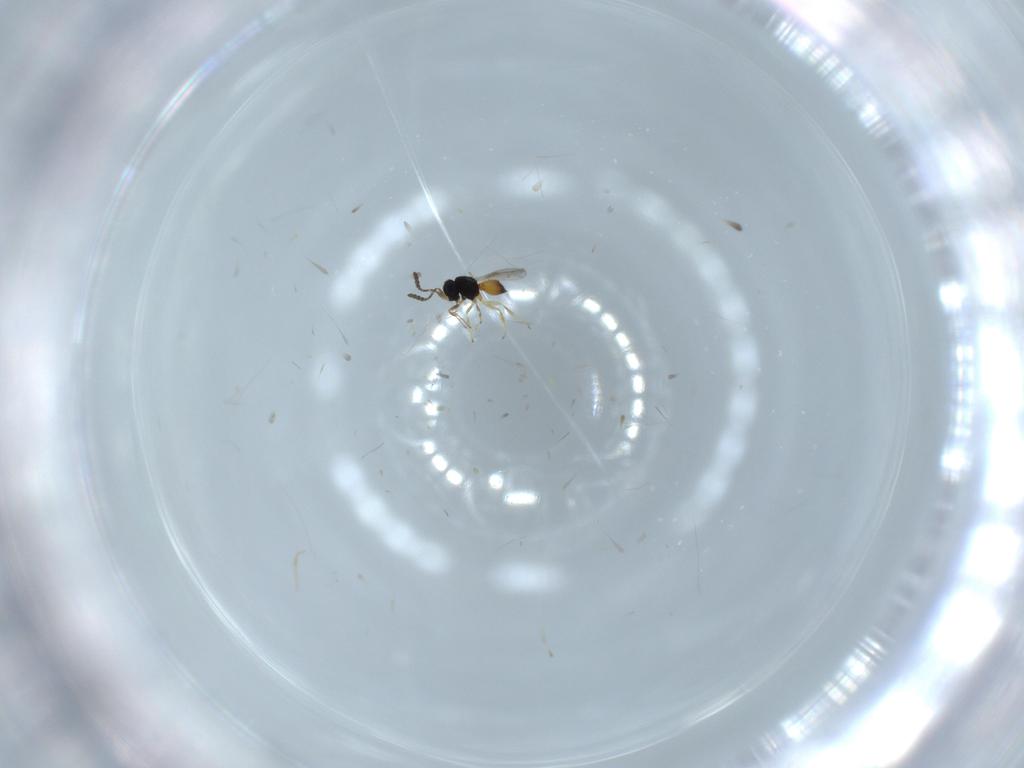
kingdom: Animalia
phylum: Arthropoda
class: Insecta
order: Hymenoptera
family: Scelionidae
